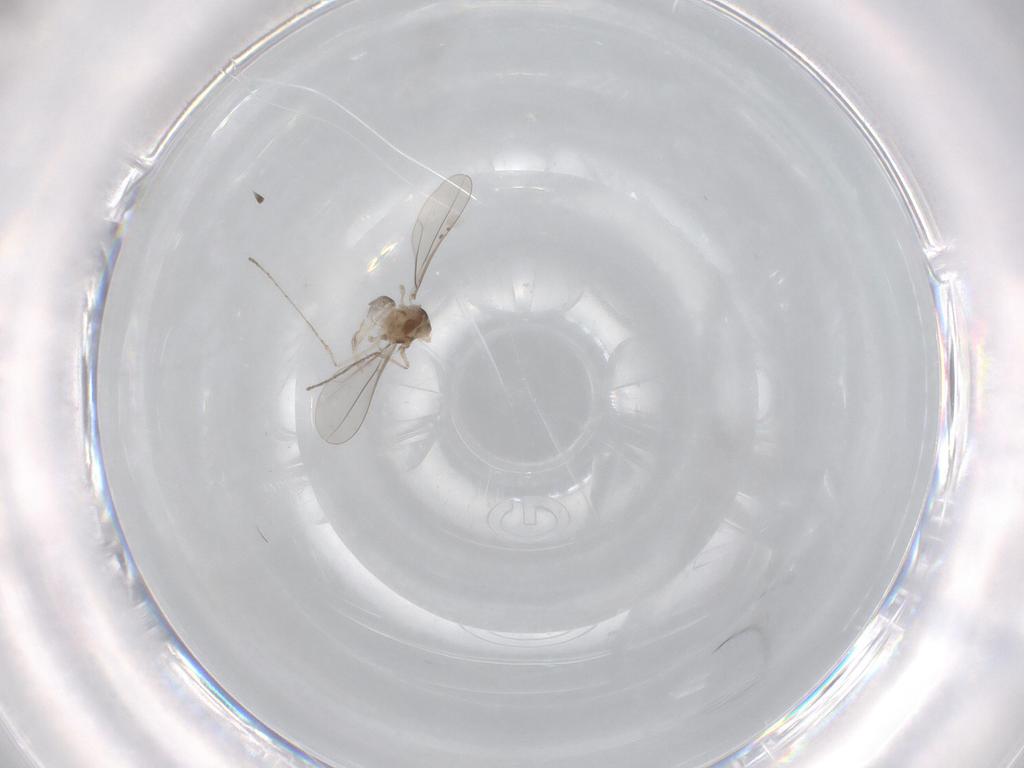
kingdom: Animalia
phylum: Arthropoda
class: Insecta
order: Diptera
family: Cecidomyiidae
